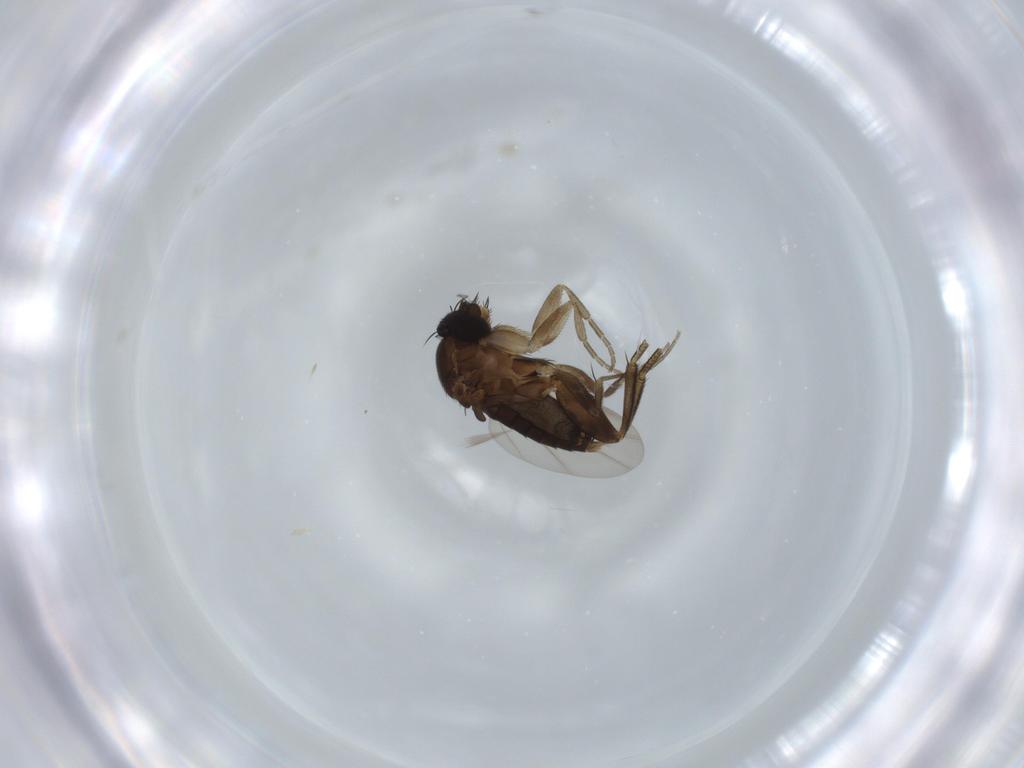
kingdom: Animalia
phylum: Arthropoda
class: Insecta
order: Diptera
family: Phoridae
